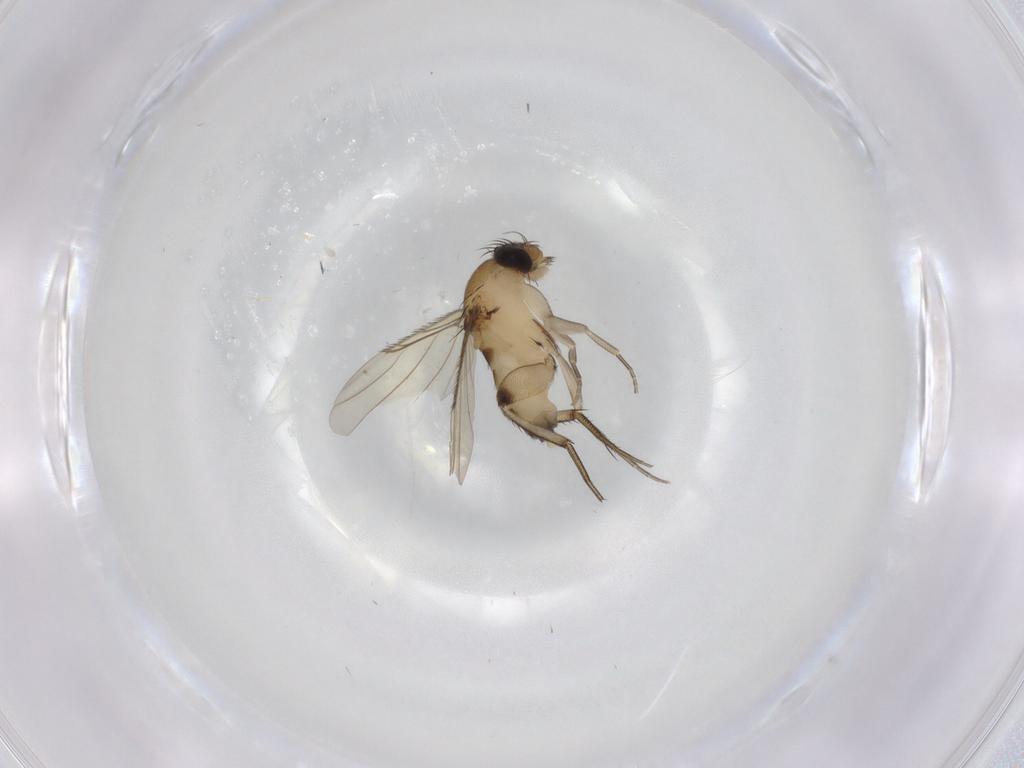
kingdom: Animalia
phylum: Arthropoda
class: Insecta
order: Diptera
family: Phoridae
